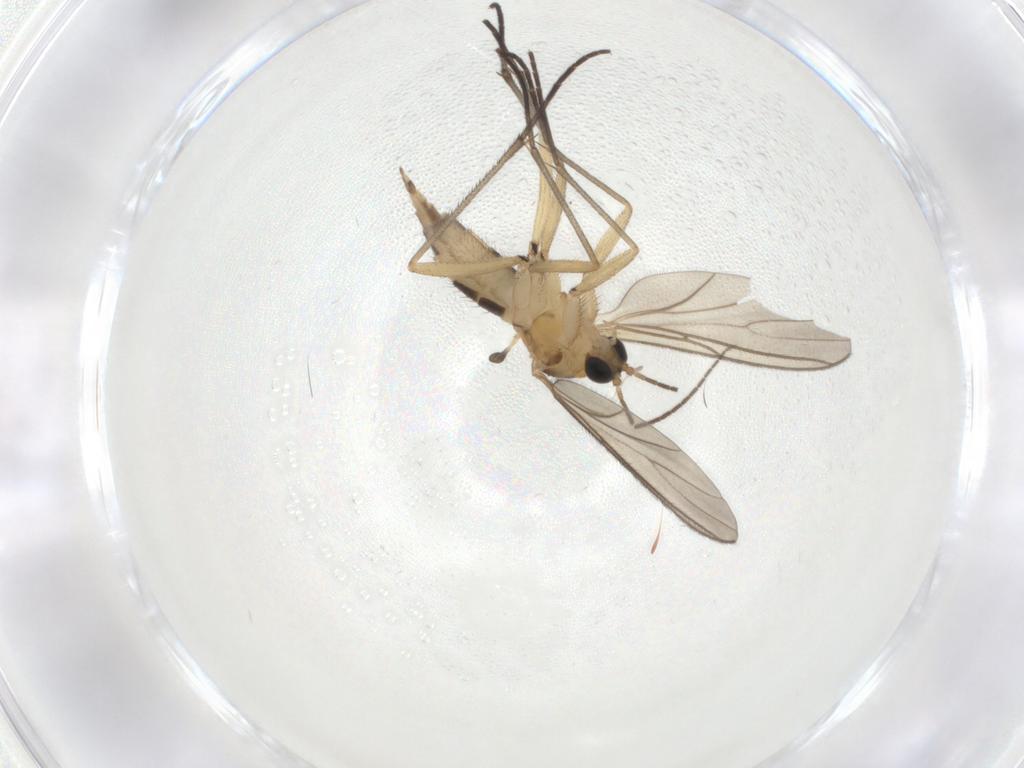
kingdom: Animalia
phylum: Arthropoda
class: Insecta
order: Diptera
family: Sciaridae
